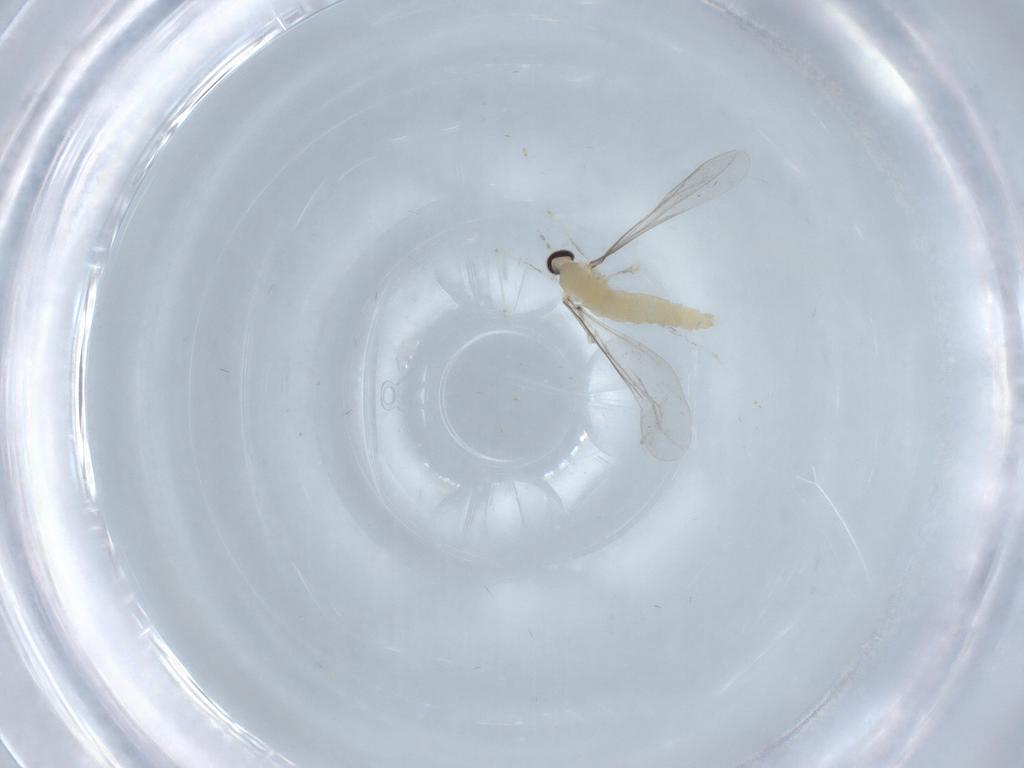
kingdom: Animalia
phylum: Arthropoda
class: Insecta
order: Diptera
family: Cecidomyiidae
